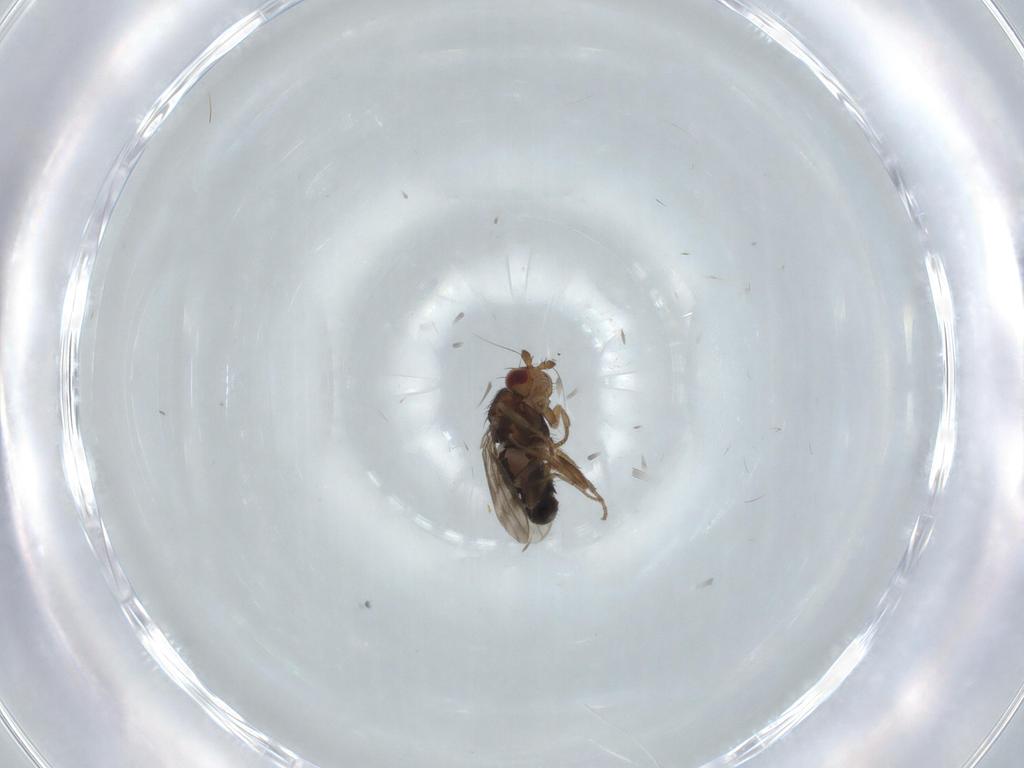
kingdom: Animalia
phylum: Arthropoda
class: Insecta
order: Diptera
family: Sphaeroceridae
